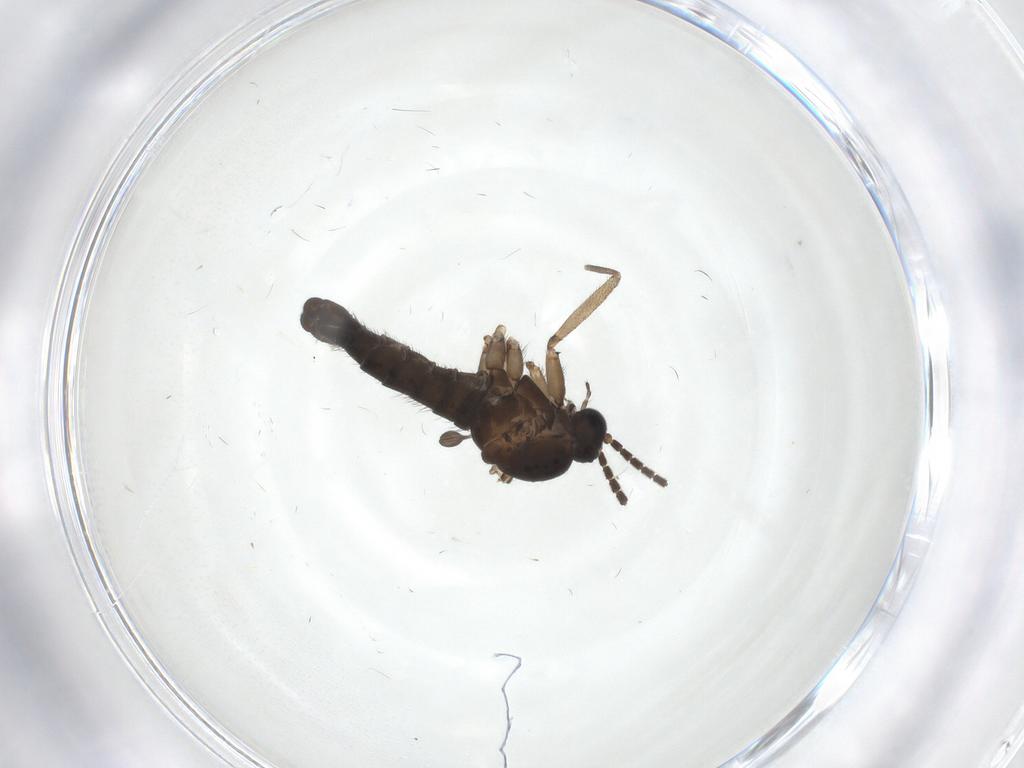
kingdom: Animalia
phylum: Arthropoda
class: Insecta
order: Diptera
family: Sciaridae
